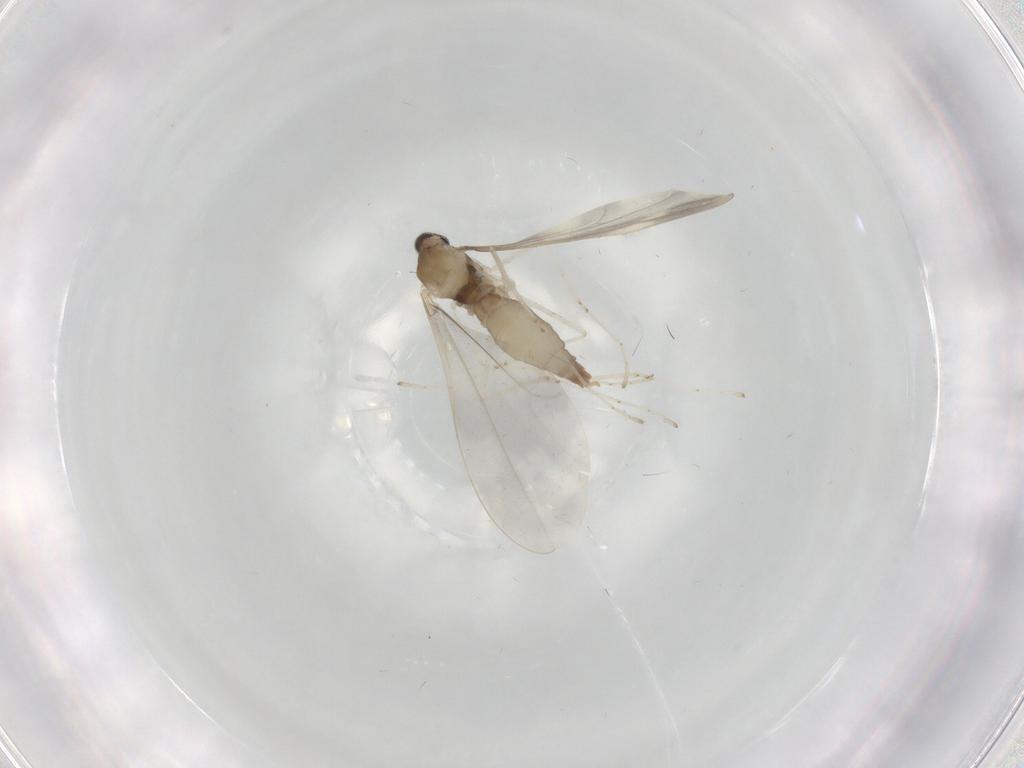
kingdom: Animalia
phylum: Arthropoda
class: Insecta
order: Diptera
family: Cecidomyiidae
